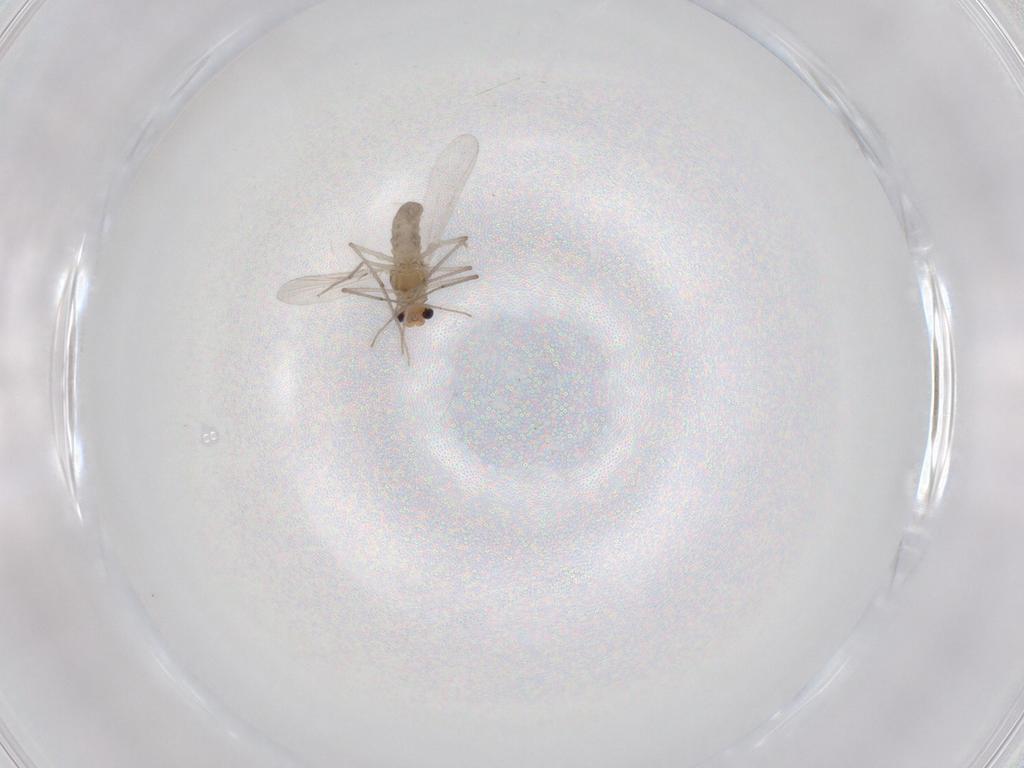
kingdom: Animalia
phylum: Arthropoda
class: Insecta
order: Diptera
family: Chironomidae
